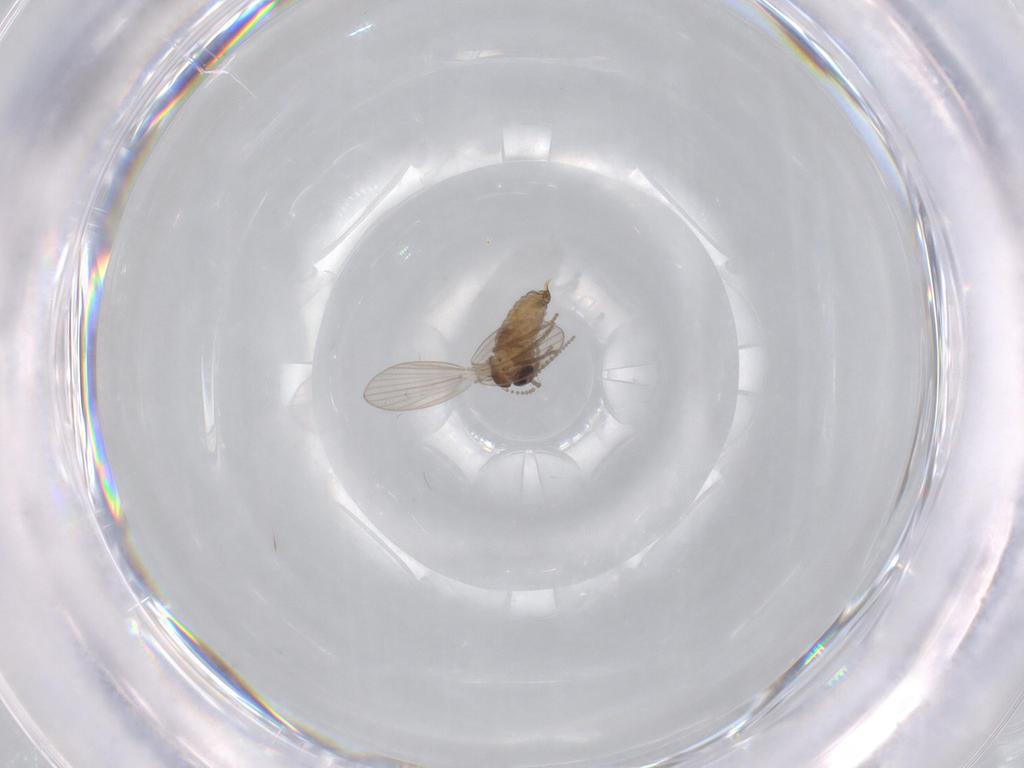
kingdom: Animalia
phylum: Arthropoda
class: Insecta
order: Diptera
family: Psychodidae
